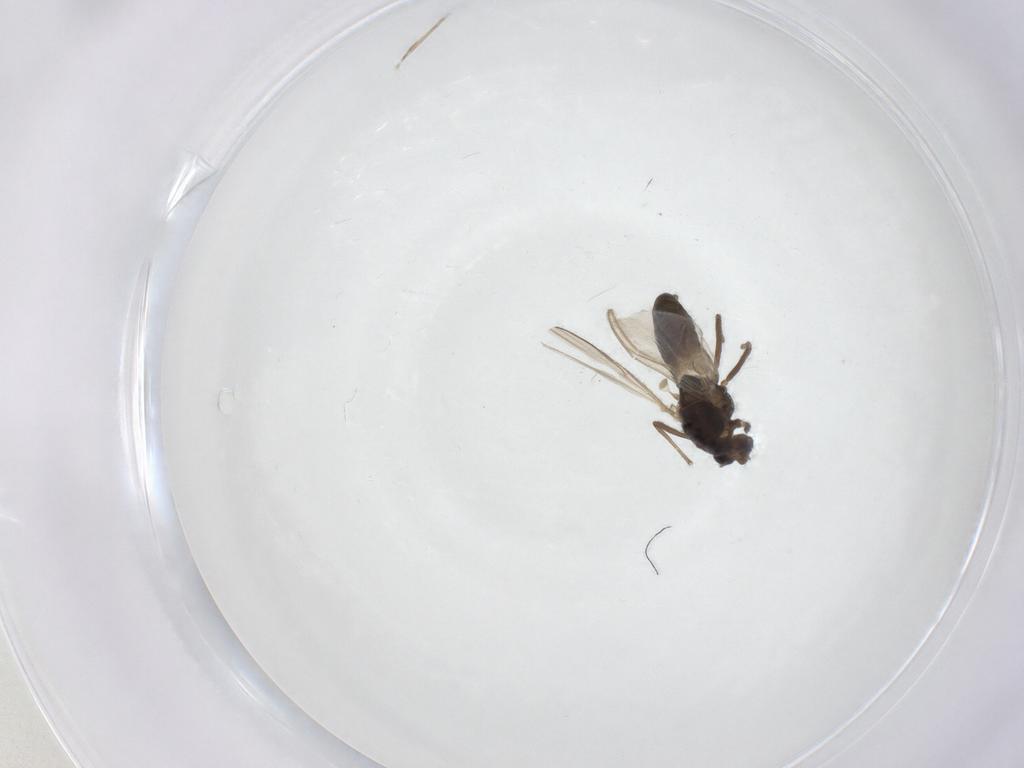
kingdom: Animalia
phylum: Arthropoda
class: Insecta
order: Diptera
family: Chironomidae
